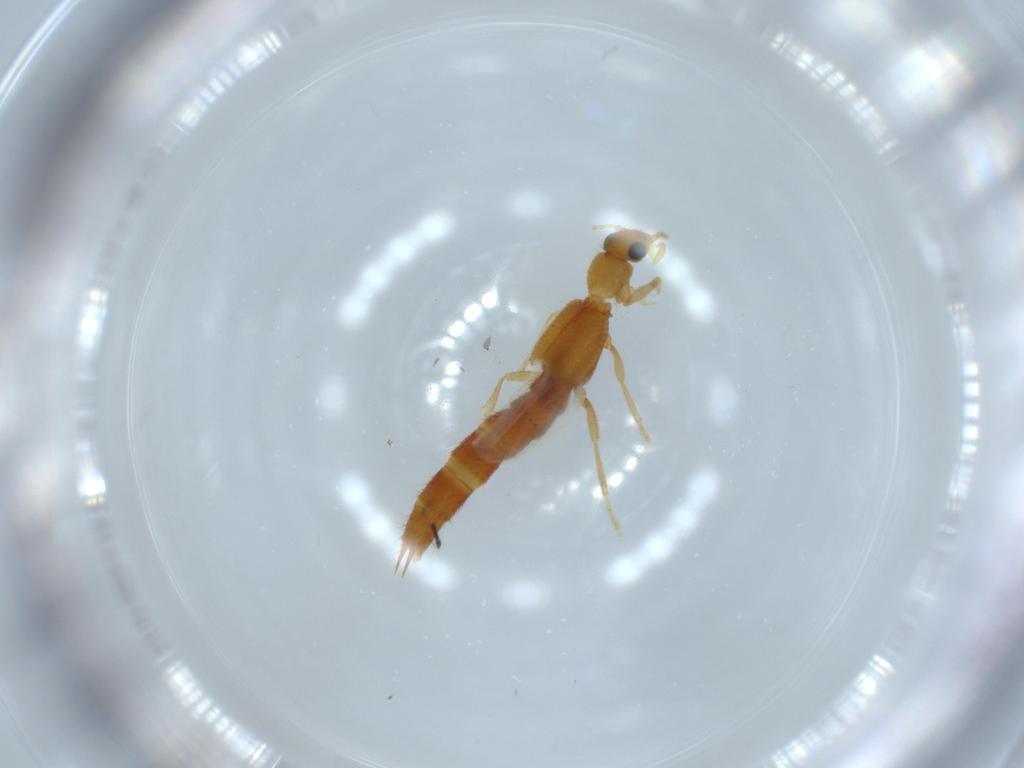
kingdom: Animalia
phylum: Arthropoda
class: Insecta
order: Coleoptera
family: Staphylinidae
